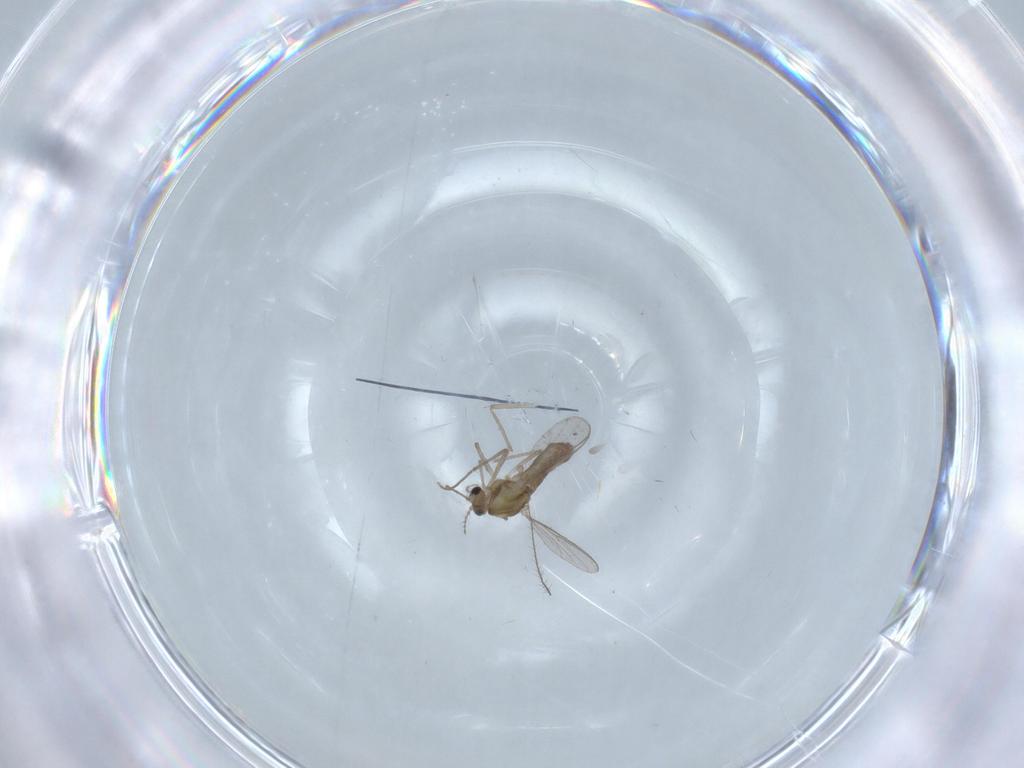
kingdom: Animalia
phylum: Arthropoda
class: Insecta
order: Diptera
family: Chironomidae
